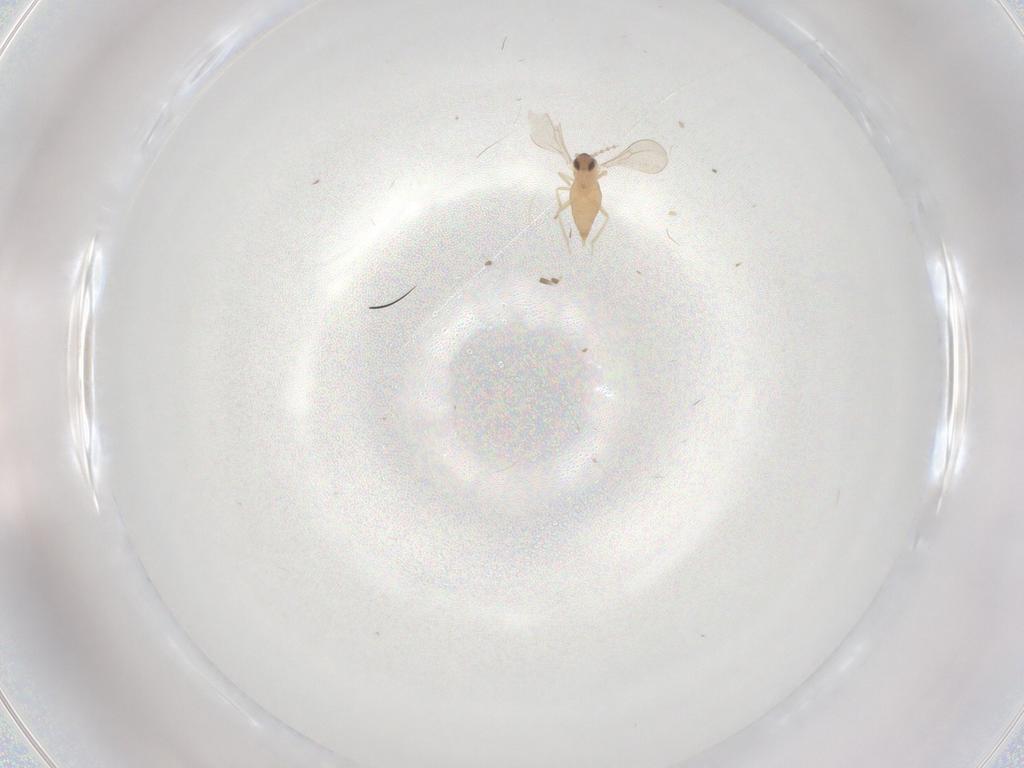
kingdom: Animalia
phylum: Arthropoda
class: Insecta
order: Diptera
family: Cecidomyiidae
